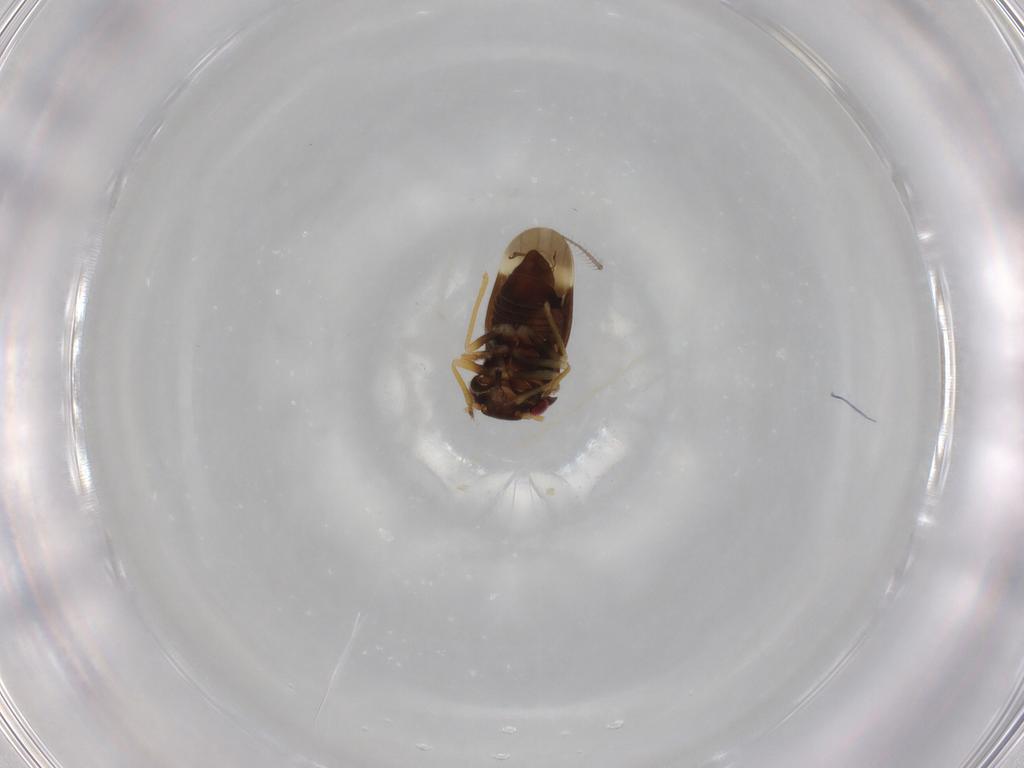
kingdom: Animalia
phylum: Arthropoda
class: Insecta
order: Hemiptera
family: Schizopteridae
